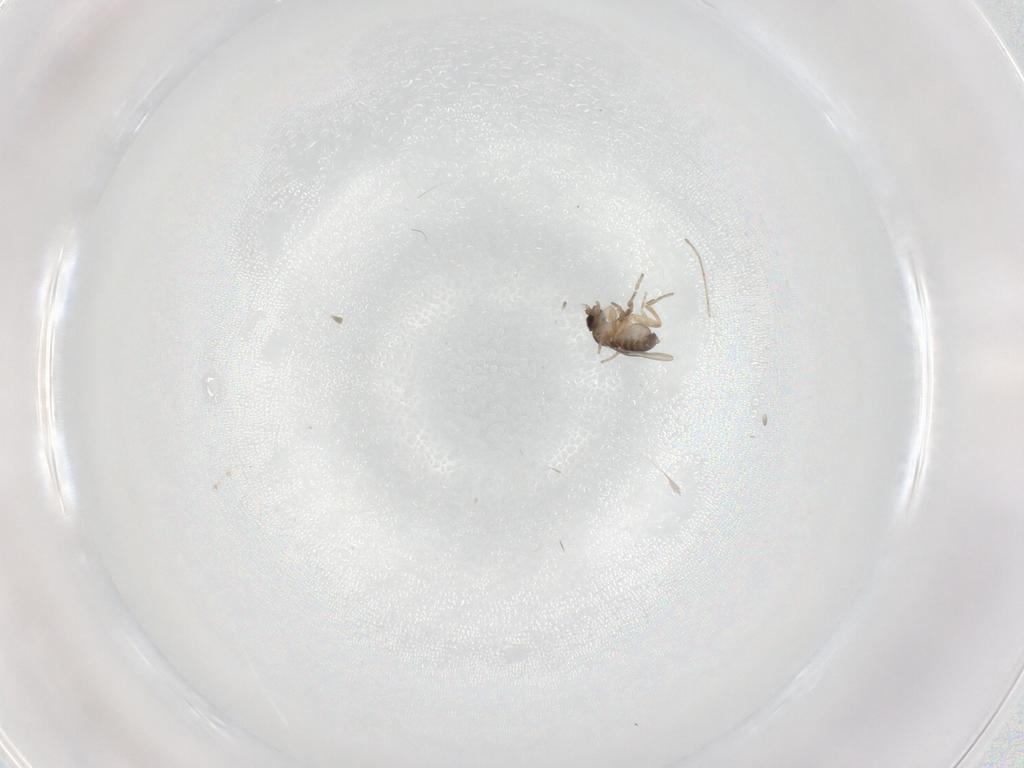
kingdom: Animalia
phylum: Arthropoda
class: Insecta
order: Diptera
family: Phoridae
